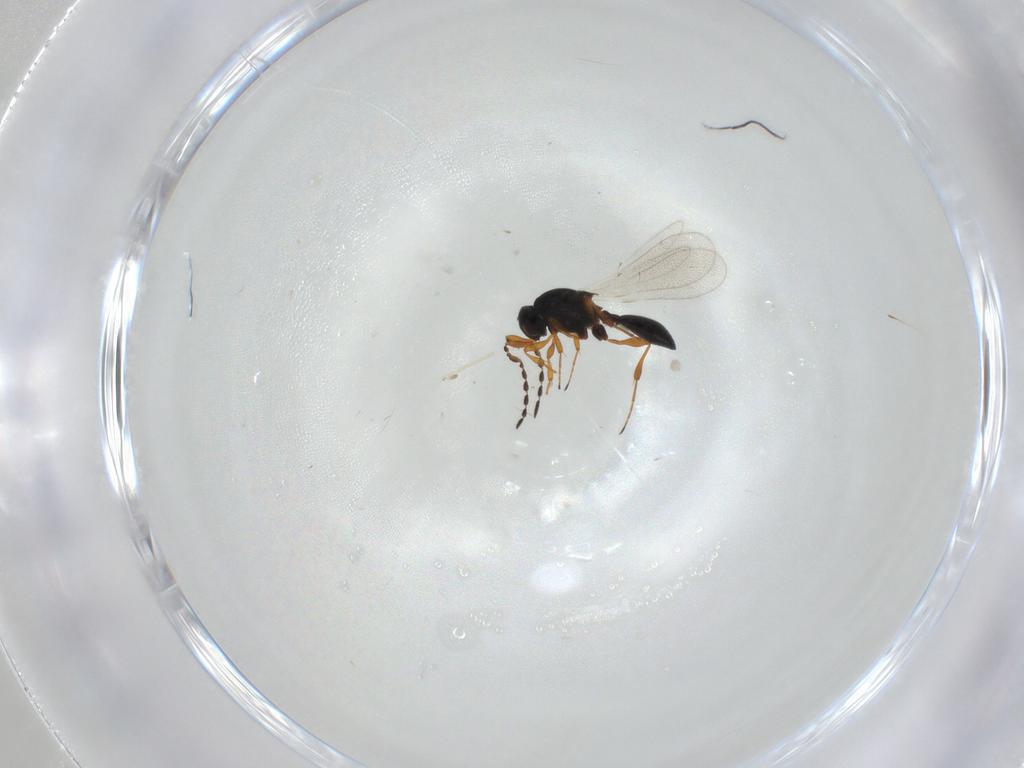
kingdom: Animalia
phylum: Arthropoda
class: Insecta
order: Hymenoptera
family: Platygastridae
